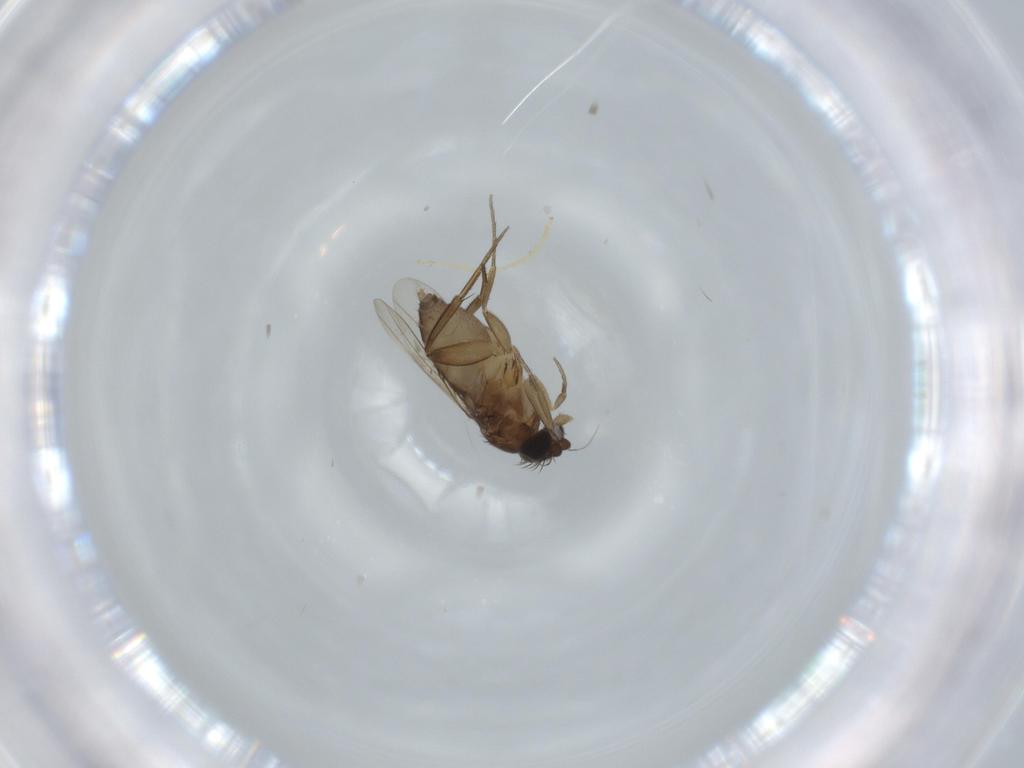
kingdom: Animalia
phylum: Arthropoda
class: Insecta
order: Diptera
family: Phoridae
